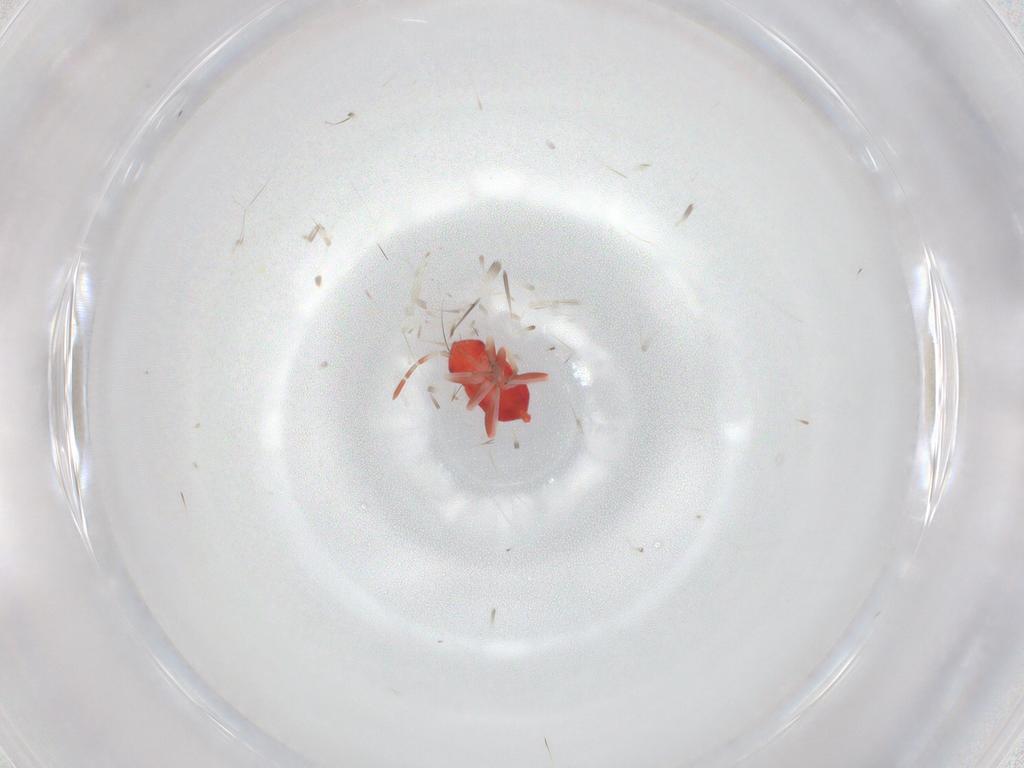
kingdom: Animalia
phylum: Arthropoda
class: Insecta
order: Hemiptera
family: Miridae
